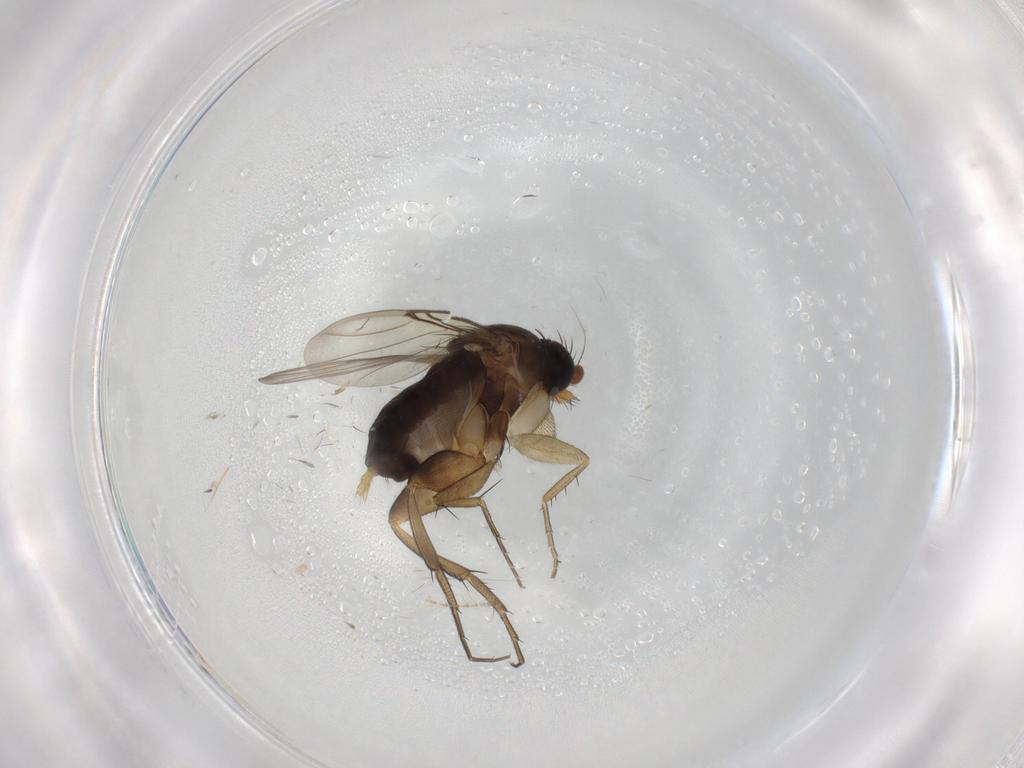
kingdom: Animalia
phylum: Arthropoda
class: Insecta
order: Diptera
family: Phoridae
